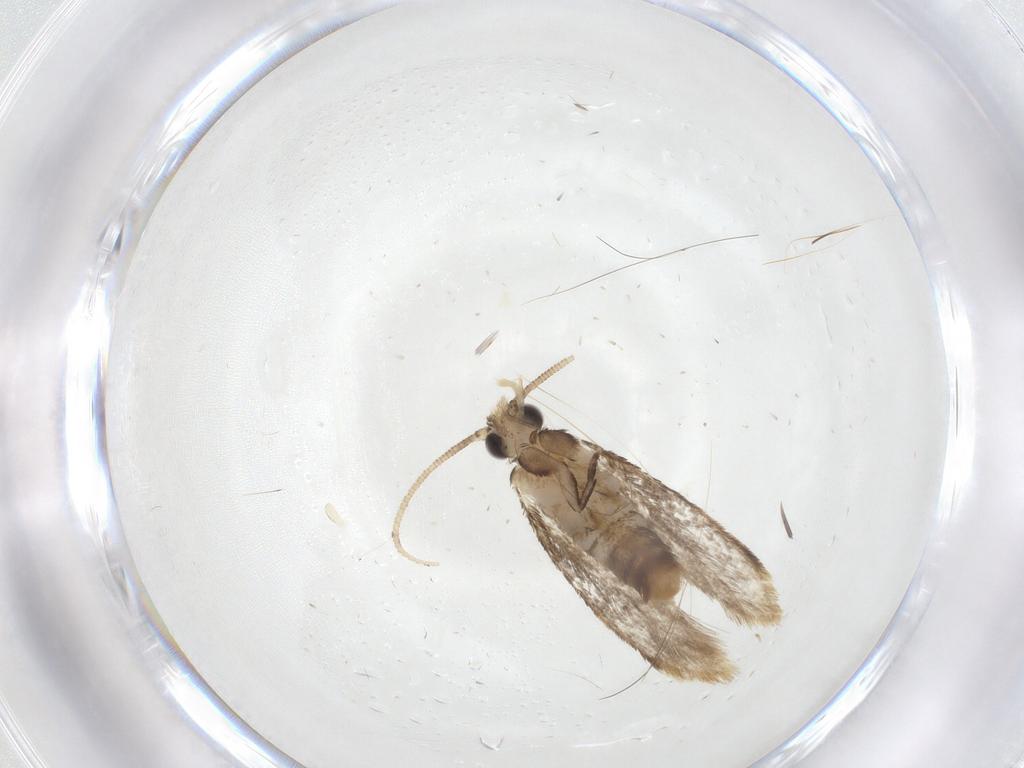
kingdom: Animalia
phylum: Arthropoda
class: Insecta
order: Lepidoptera
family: Dryadaulidae
